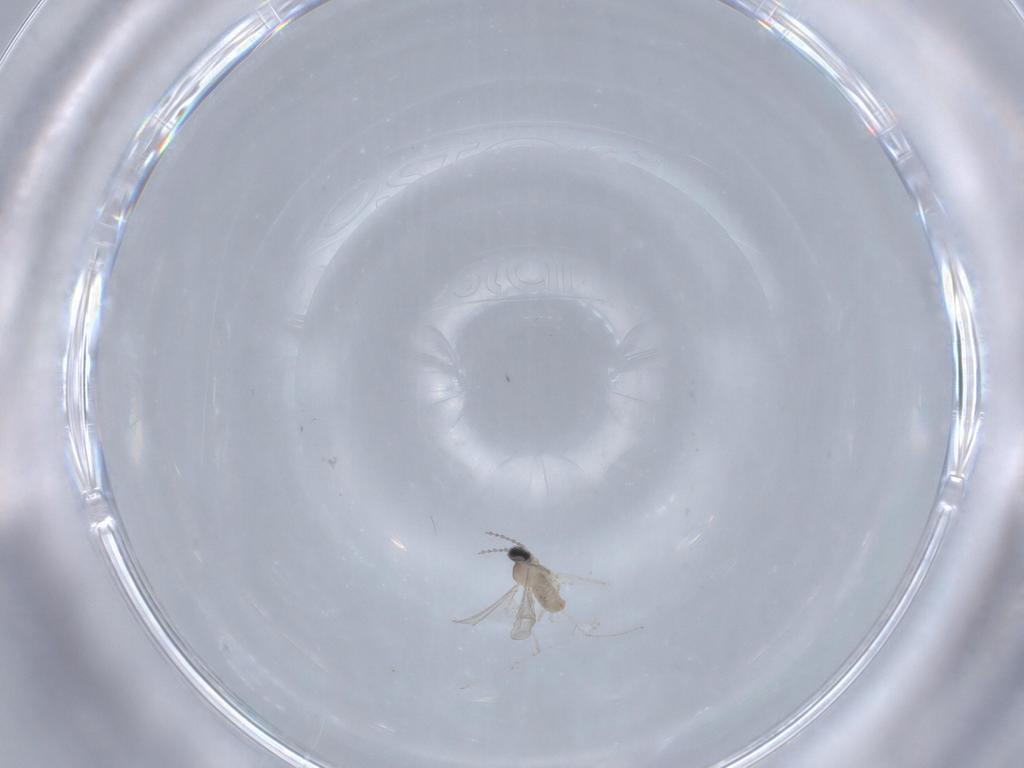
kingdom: Animalia
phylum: Arthropoda
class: Insecta
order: Diptera
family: Cecidomyiidae
